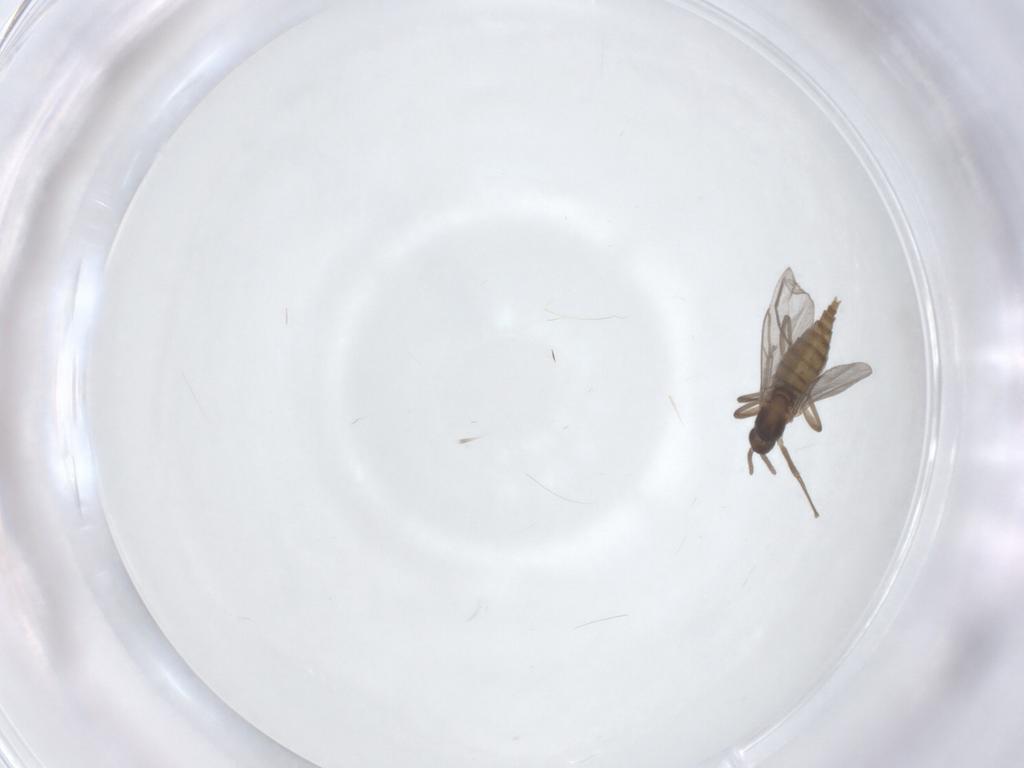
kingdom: Animalia
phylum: Arthropoda
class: Insecta
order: Diptera
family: Cecidomyiidae
